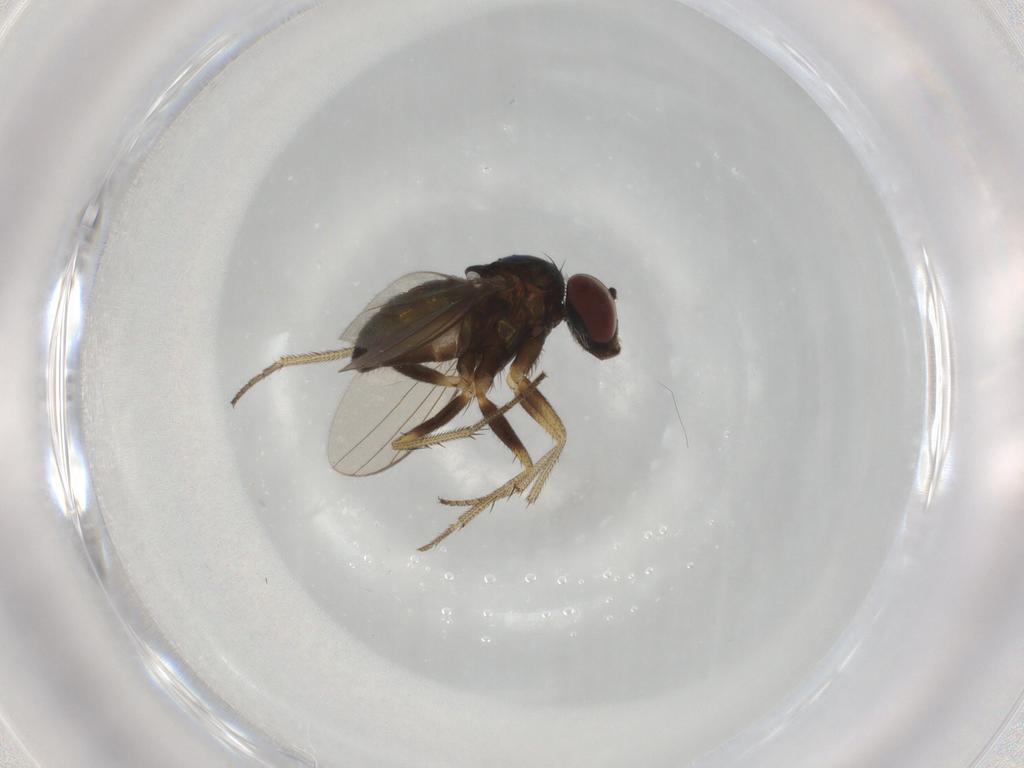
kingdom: Animalia
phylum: Arthropoda
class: Insecta
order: Diptera
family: Dolichopodidae
